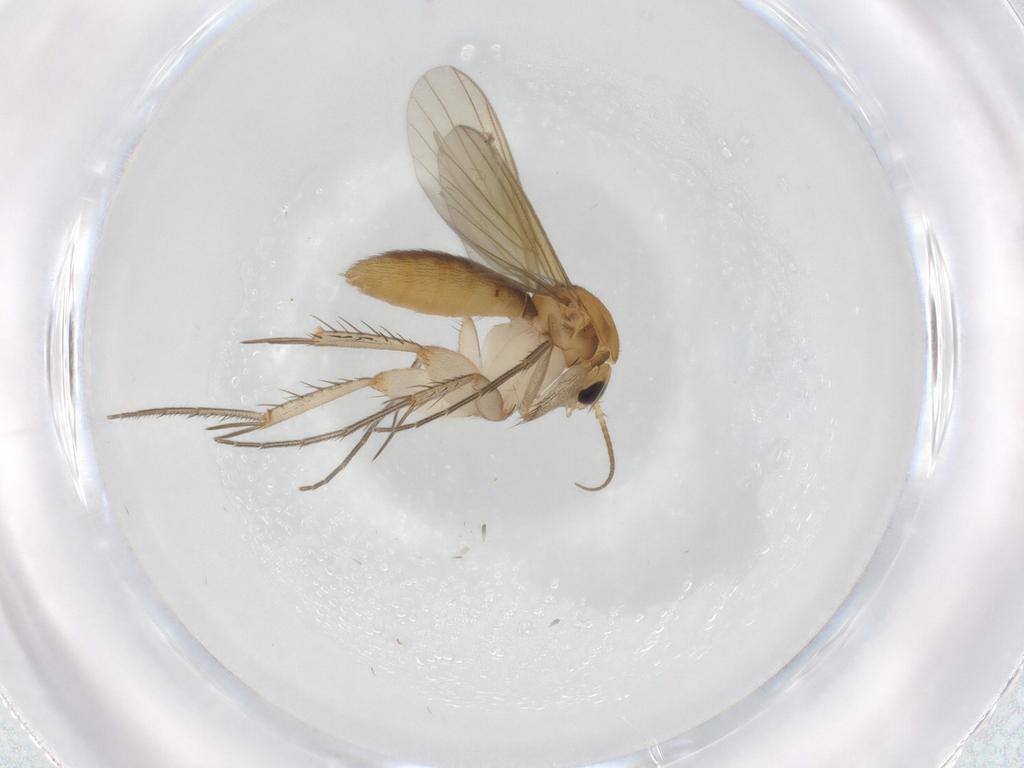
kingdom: Animalia
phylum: Arthropoda
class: Insecta
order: Diptera
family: Mycetophilidae
